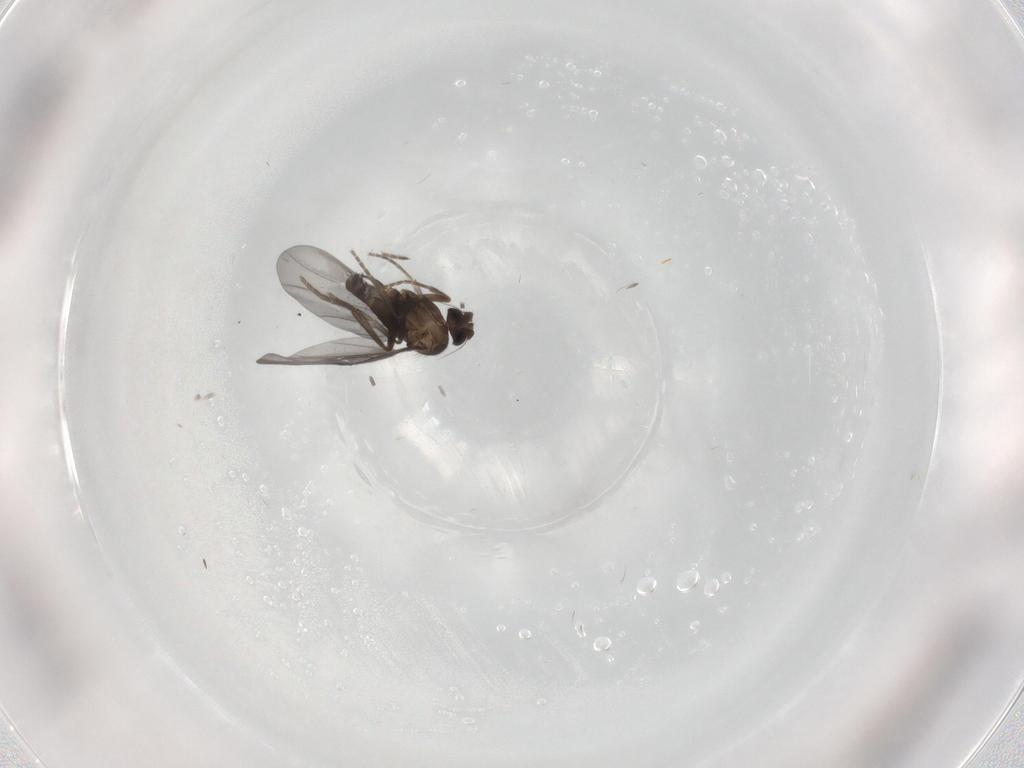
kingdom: Animalia
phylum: Arthropoda
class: Insecta
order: Diptera
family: Phoridae
